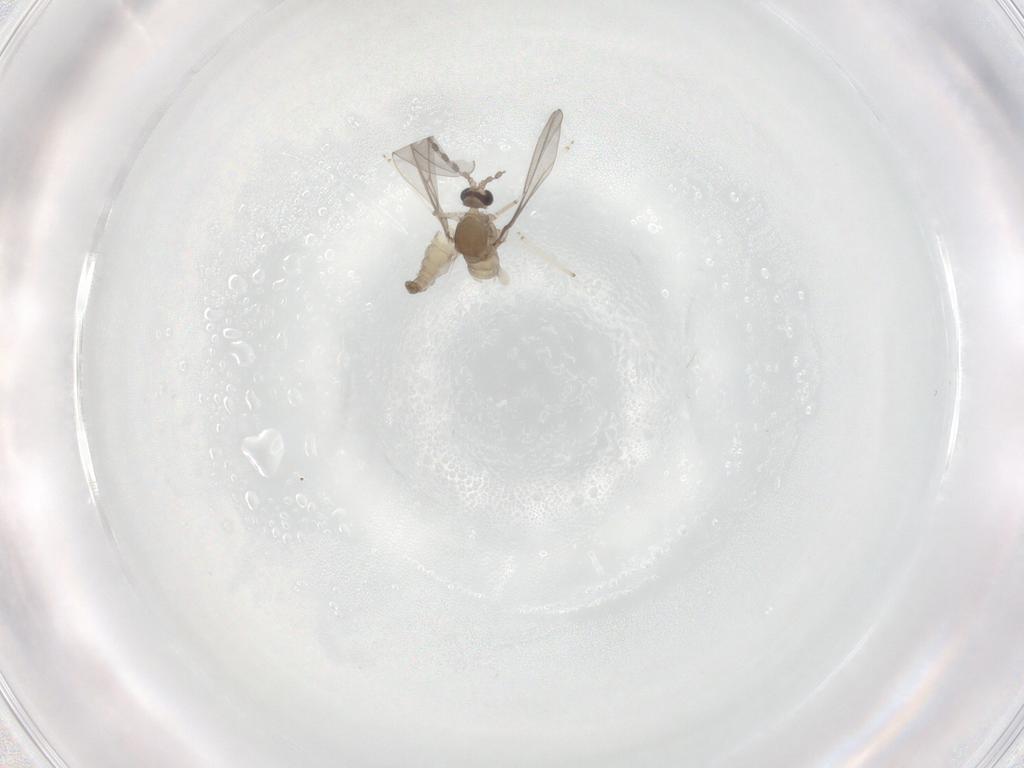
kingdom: Animalia
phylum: Arthropoda
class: Insecta
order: Diptera
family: Cecidomyiidae
